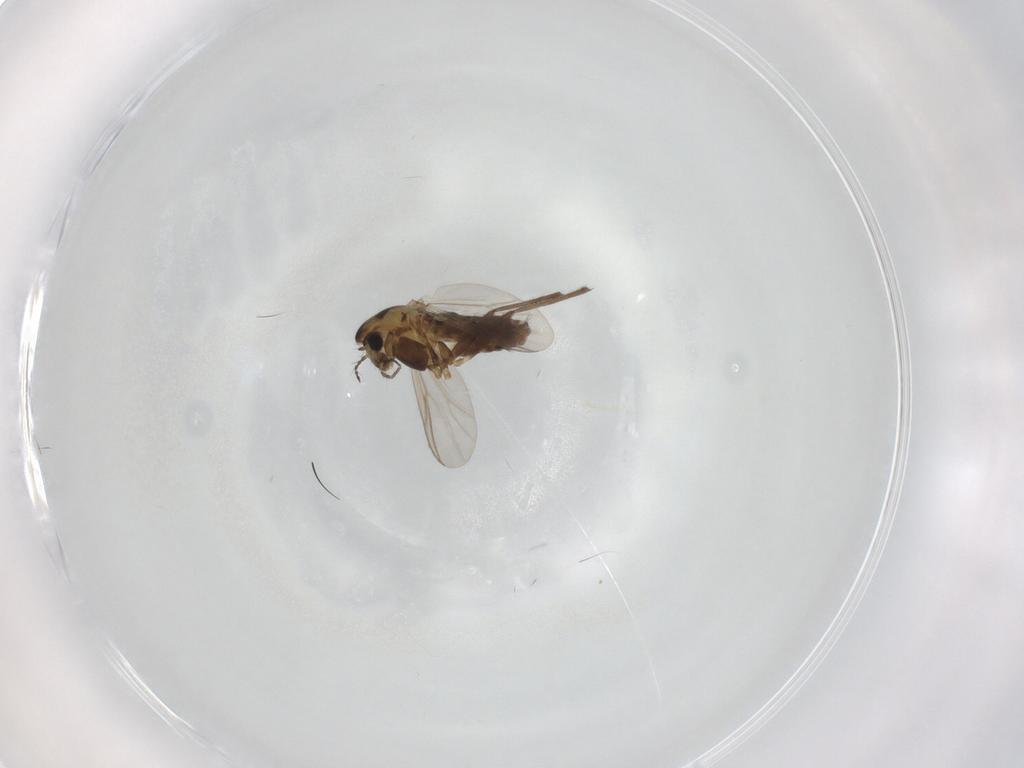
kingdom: Animalia
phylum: Arthropoda
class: Insecta
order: Diptera
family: Chironomidae
